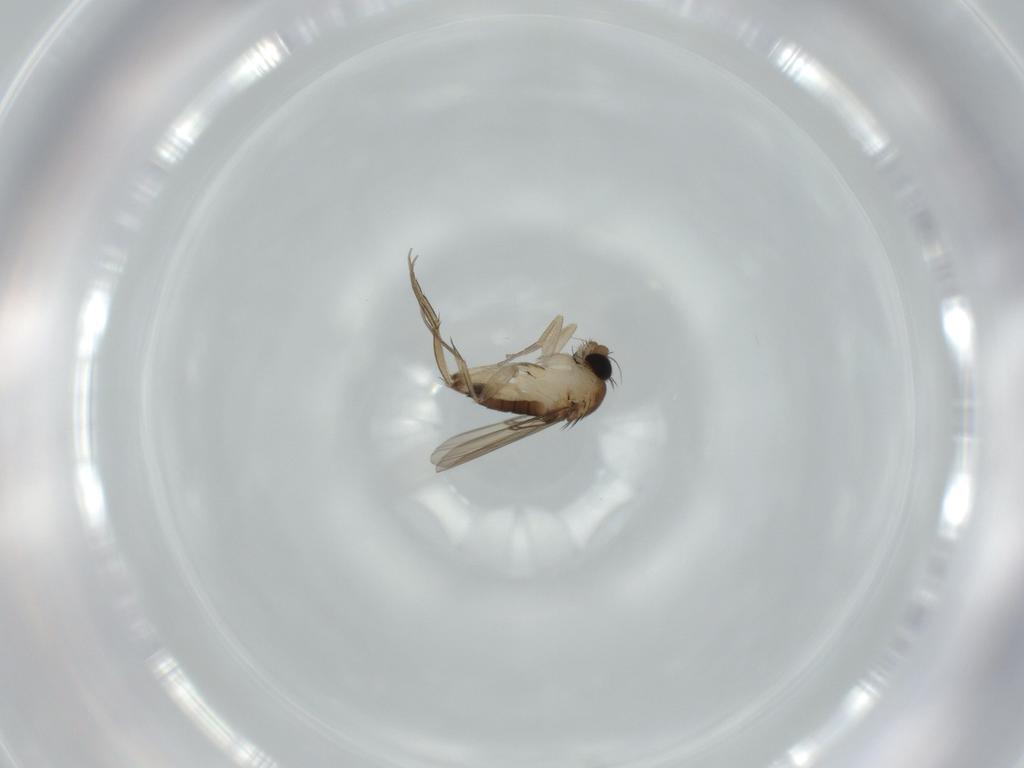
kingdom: Animalia
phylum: Arthropoda
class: Insecta
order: Diptera
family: Phoridae
